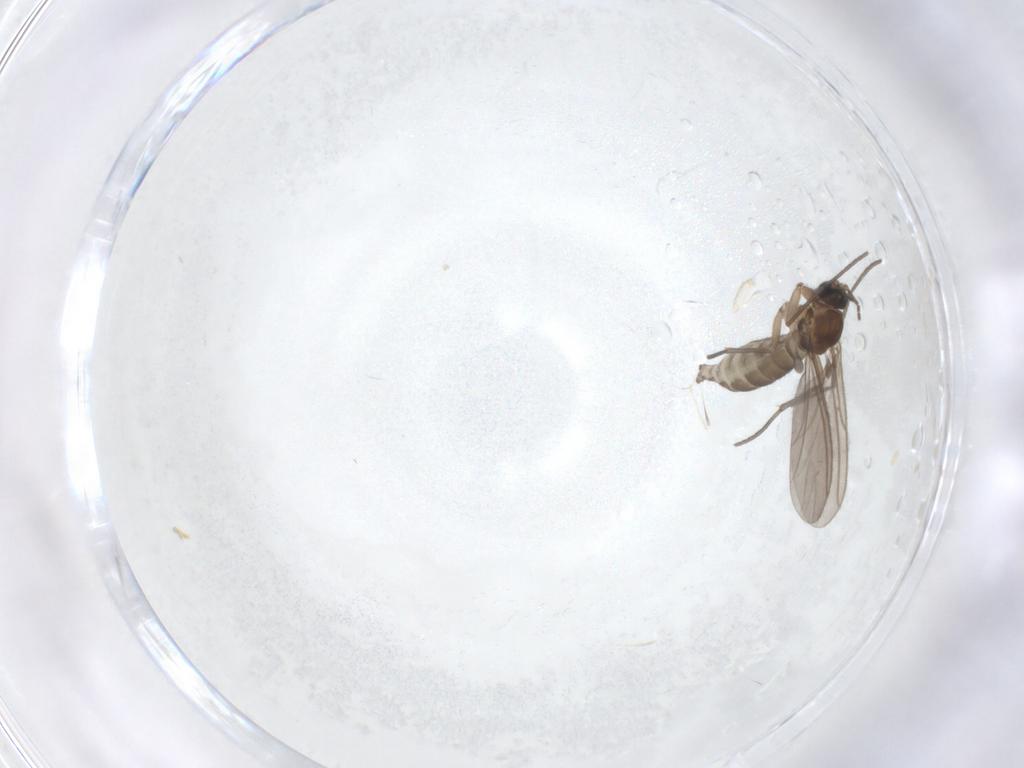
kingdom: Animalia
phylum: Arthropoda
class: Insecta
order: Diptera
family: Sciaridae
